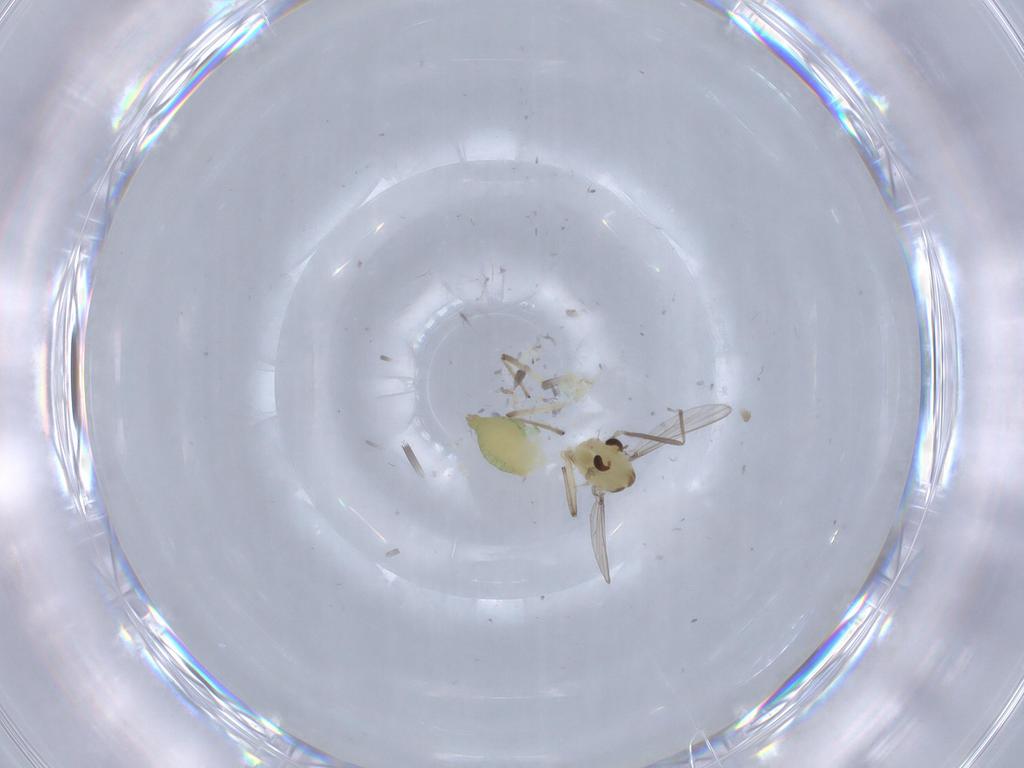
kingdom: Animalia
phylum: Arthropoda
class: Insecta
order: Diptera
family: Chironomidae
